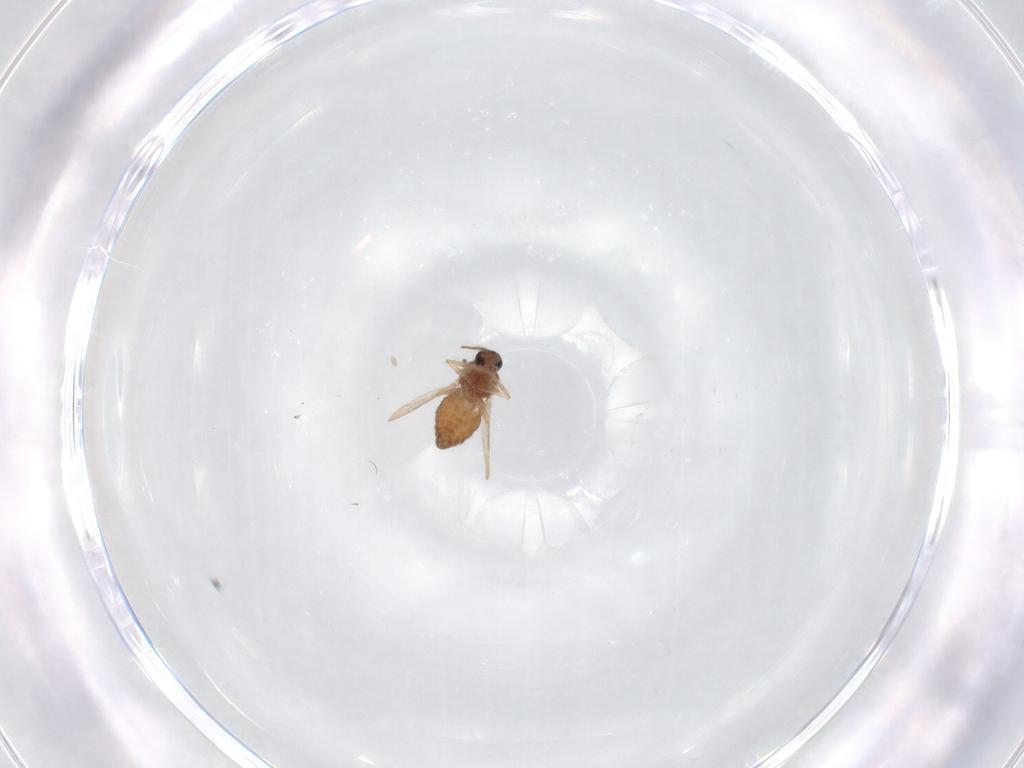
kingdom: Animalia
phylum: Arthropoda
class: Insecta
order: Diptera
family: Ceratopogonidae
